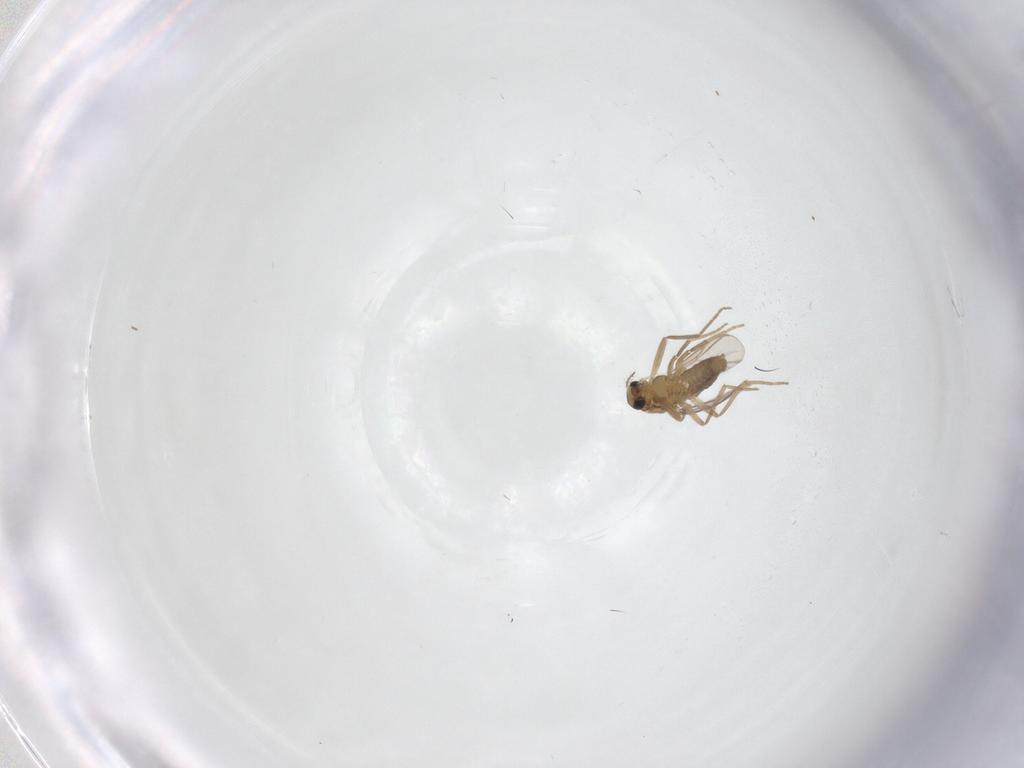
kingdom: Animalia
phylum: Arthropoda
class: Insecta
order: Diptera
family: Chironomidae
